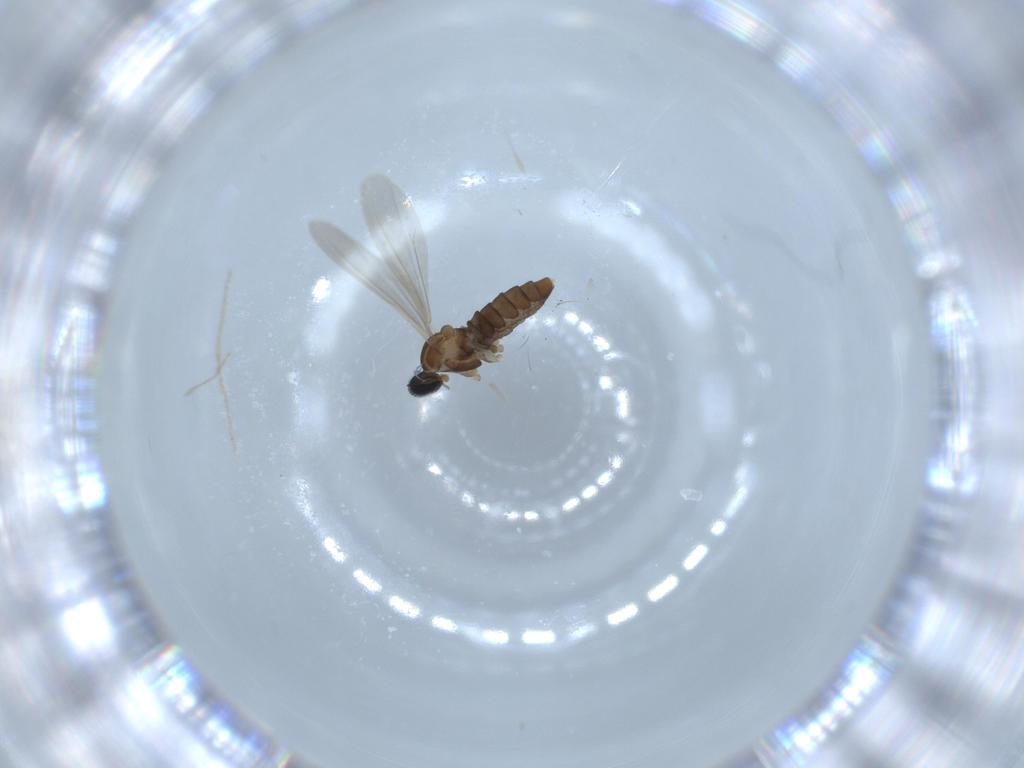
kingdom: Animalia
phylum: Arthropoda
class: Insecta
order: Diptera
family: Cecidomyiidae
